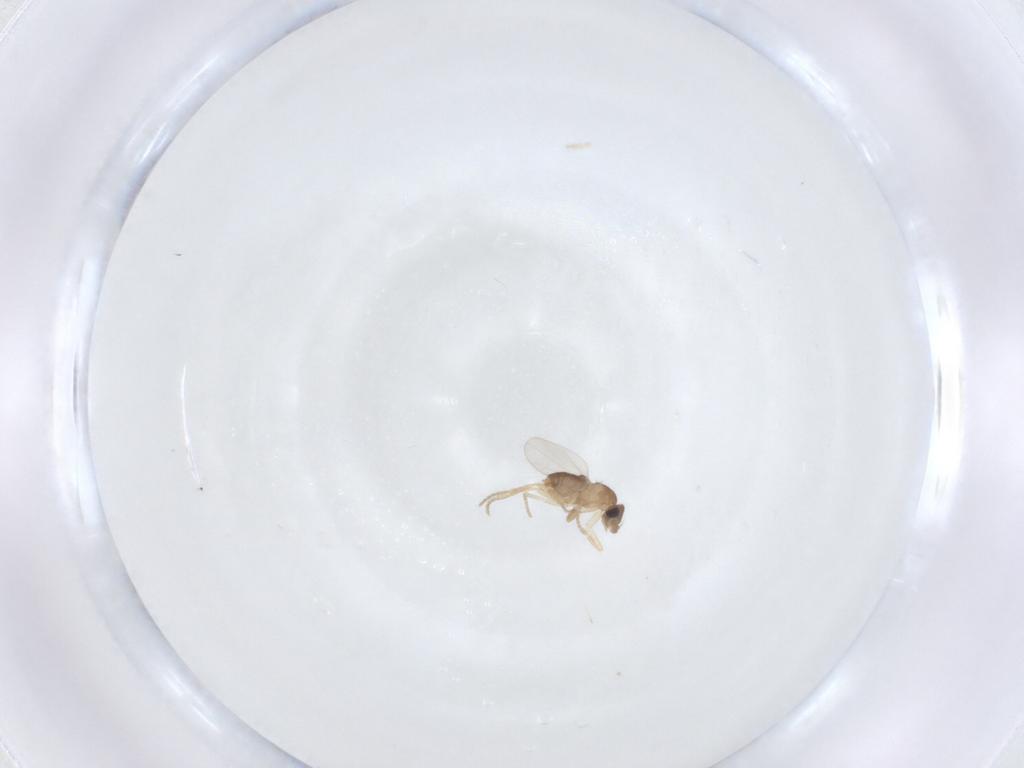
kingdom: Animalia
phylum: Arthropoda
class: Insecta
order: Diptera
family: Phoridae
